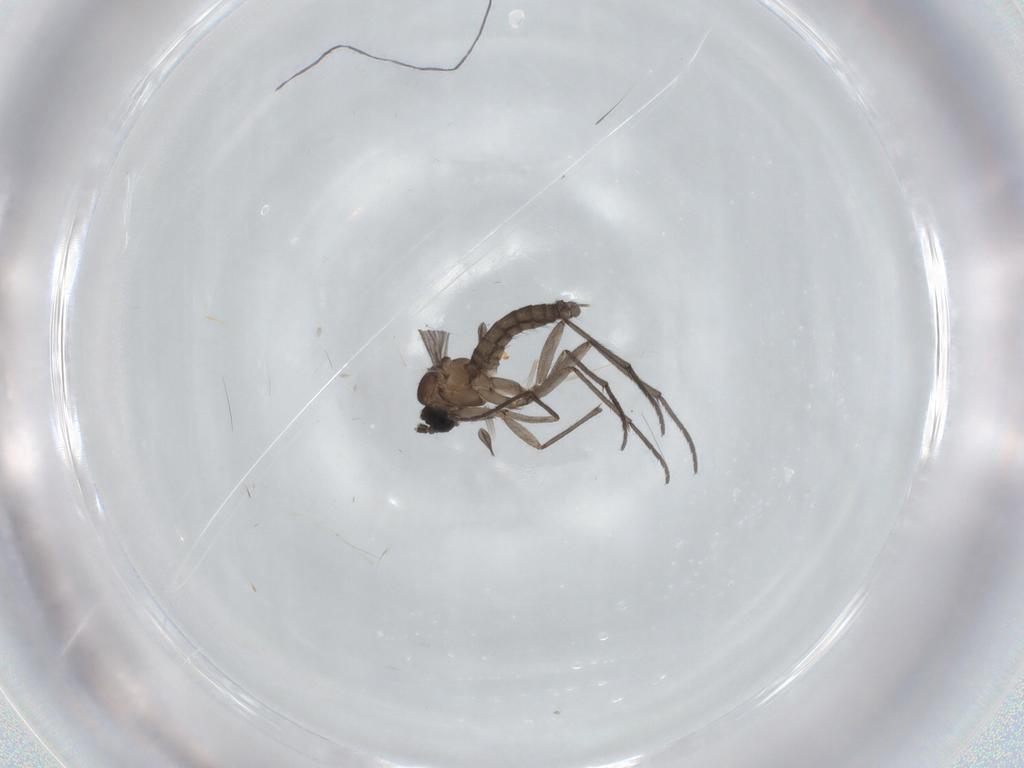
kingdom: Animalia
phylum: Arthropoda
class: Insecta
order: Diptera
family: Sciaridae
